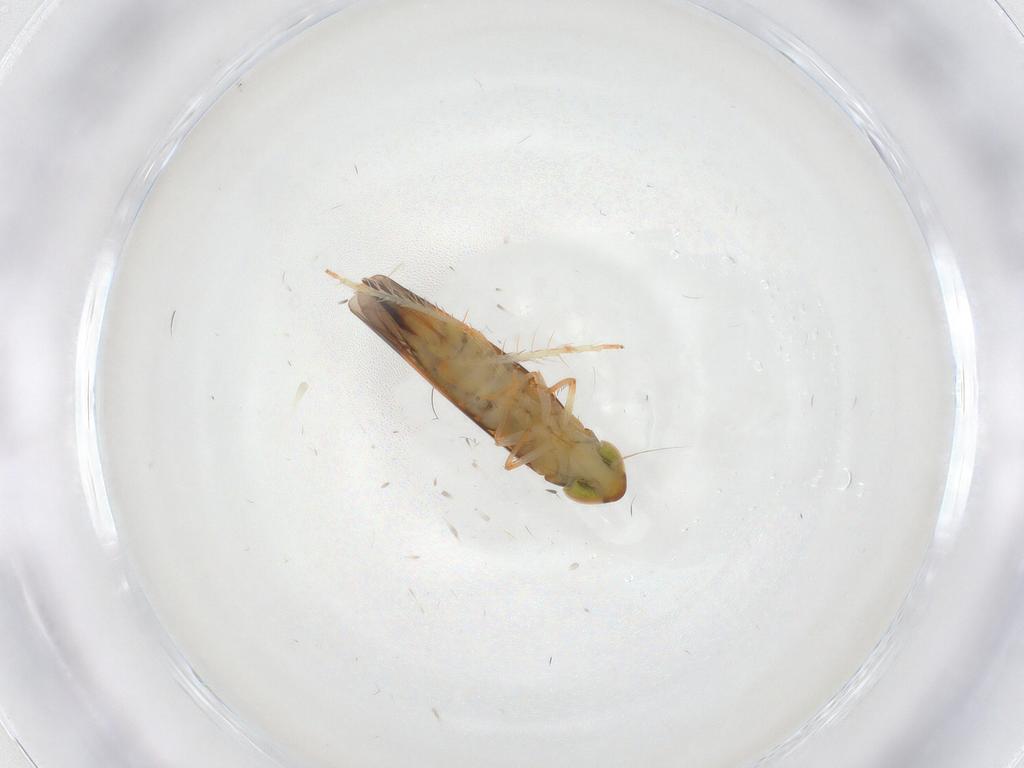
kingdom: Animalia
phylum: Arthropoda
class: Insecta
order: Hemiptera
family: Cicadellidae
